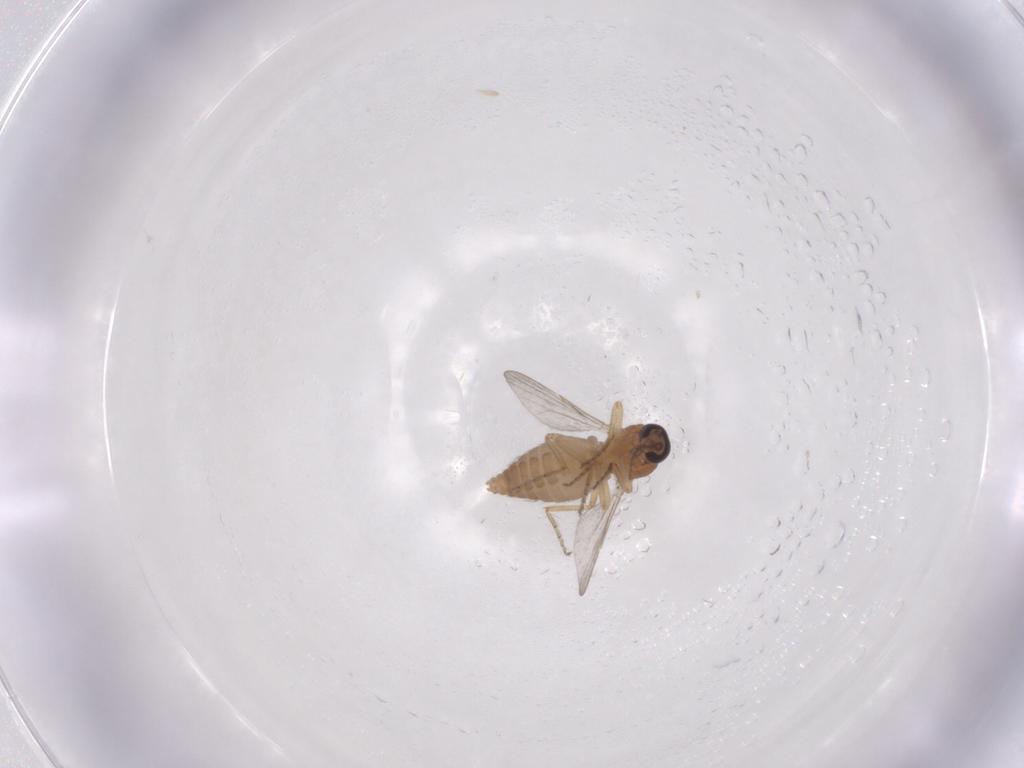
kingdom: Animalia
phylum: Arthropoda
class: Insecta
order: Diptera
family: Ceratopogonidae
